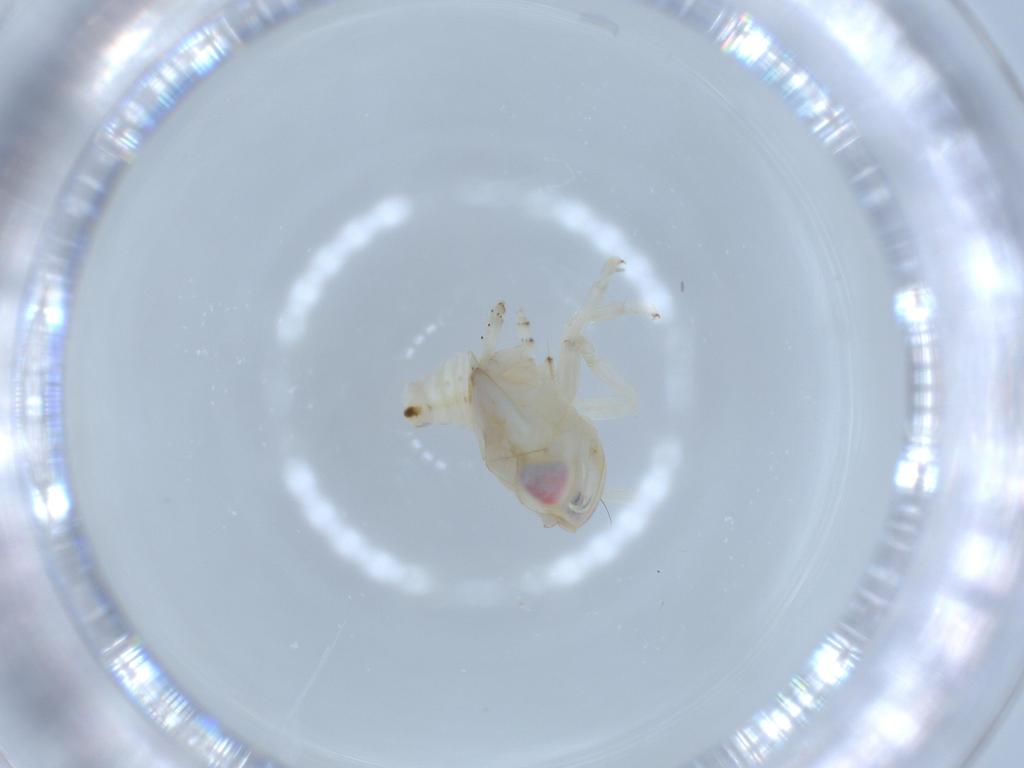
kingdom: Animalia
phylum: Arthropoda
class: Insecta
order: Hemiptera
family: Nogodinidae
